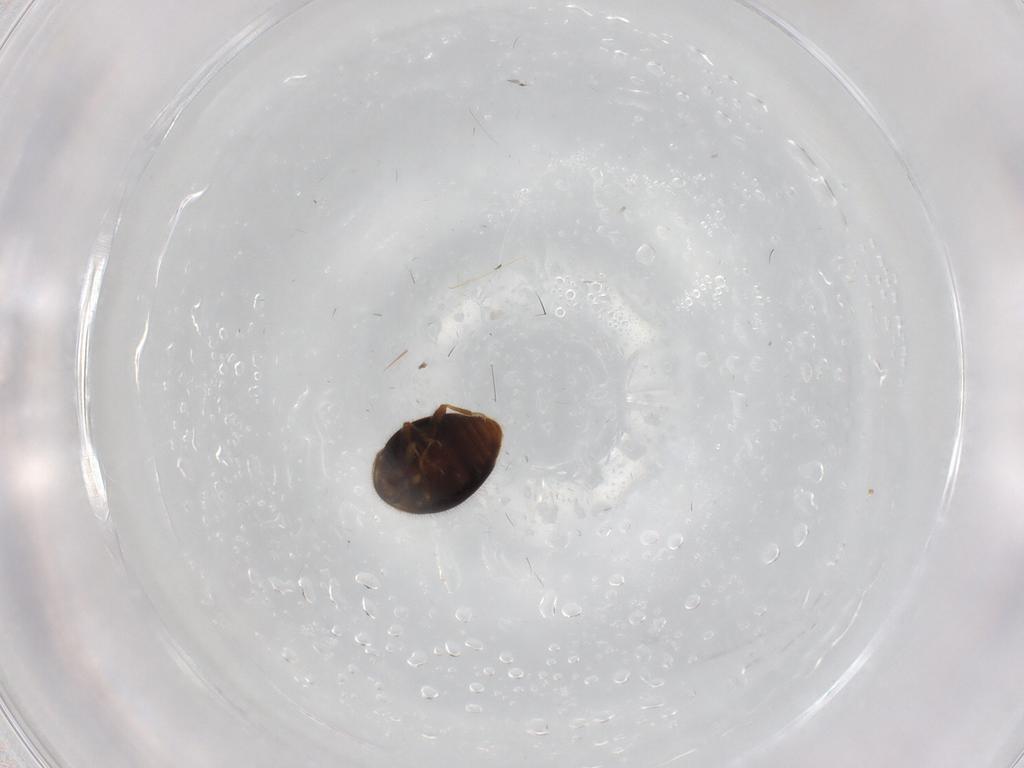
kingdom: Animalia
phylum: Arthropoda
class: Insecta
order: Coleoptera
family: Corylophidae
